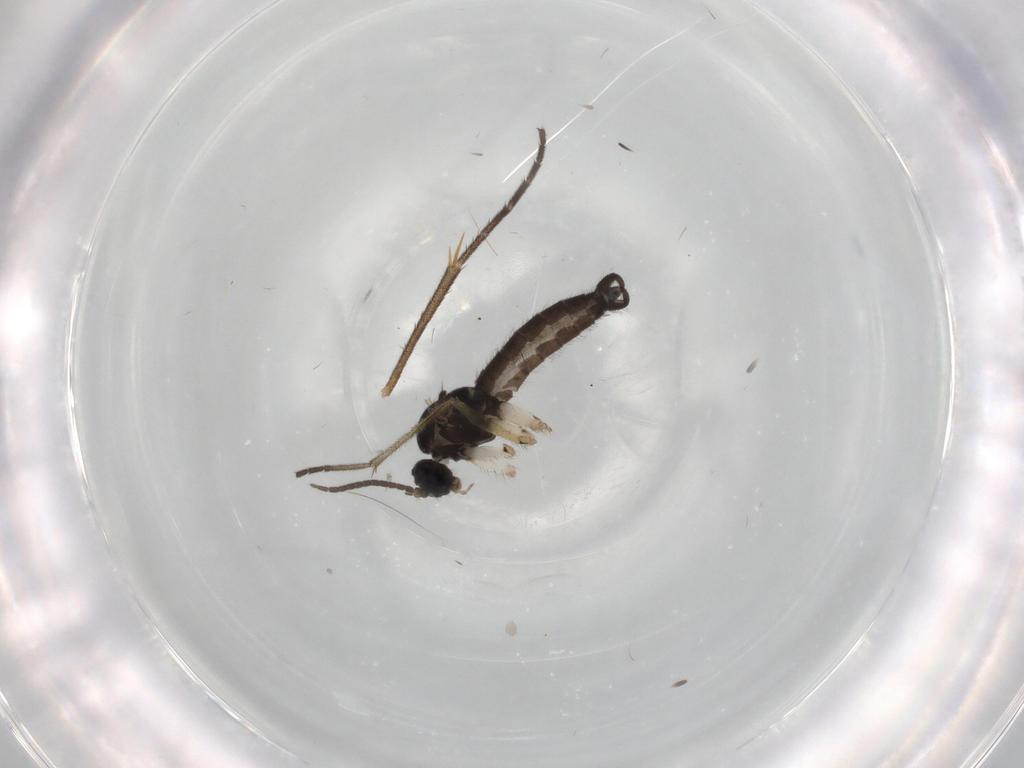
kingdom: Animalia
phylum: Arthropoda
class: Insecta
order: Diptera
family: Sciaridae
